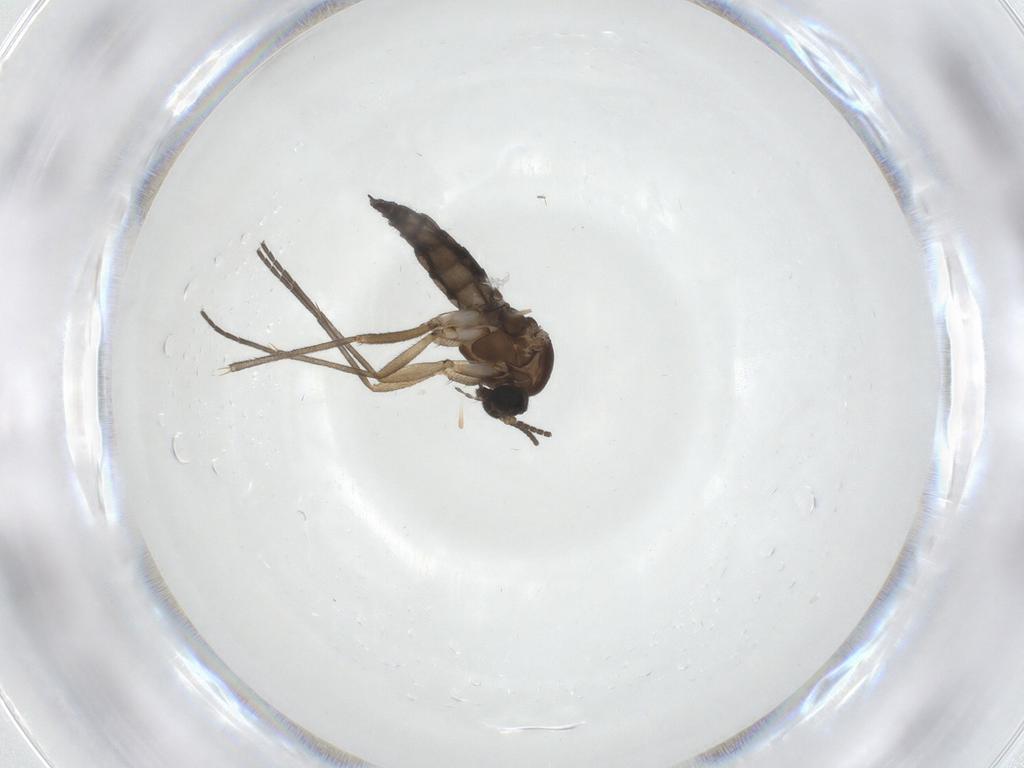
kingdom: Animalia
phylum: Arthropoda
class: Insecta
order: Diptera
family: Sciaridae
